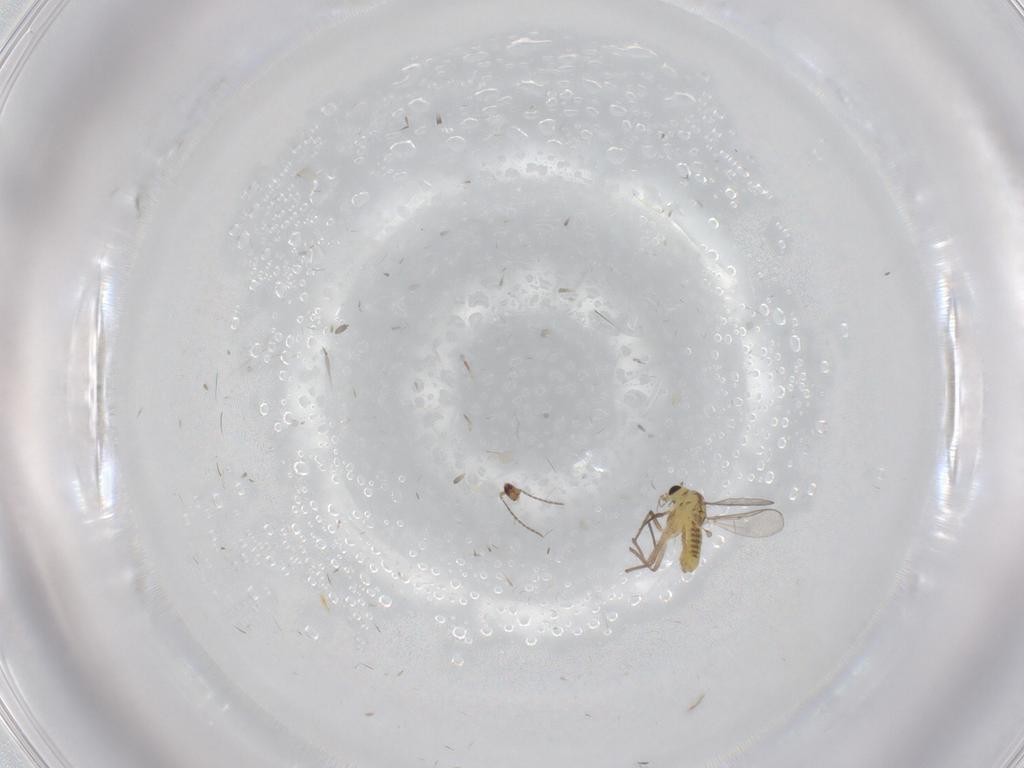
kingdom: Animalia
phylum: Arthropoda
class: Insecta
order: Diptera
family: Chironomidae
